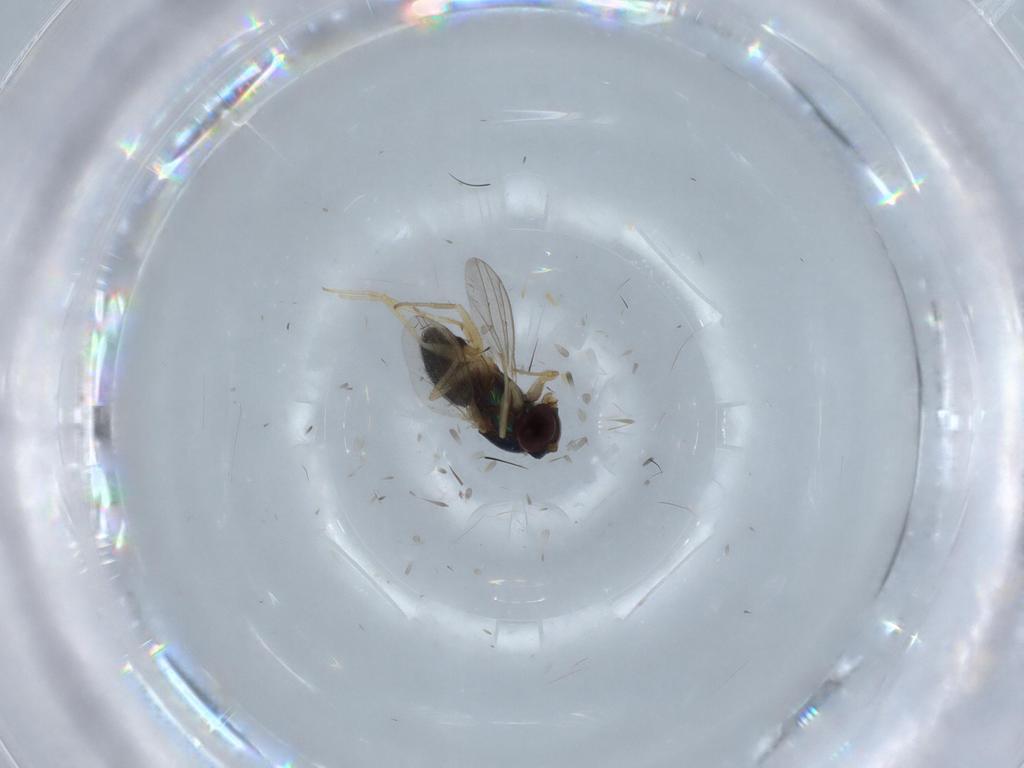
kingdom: Animalia
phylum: Arthropoda
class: Insecta
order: Diptera
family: Dolichopodidae
